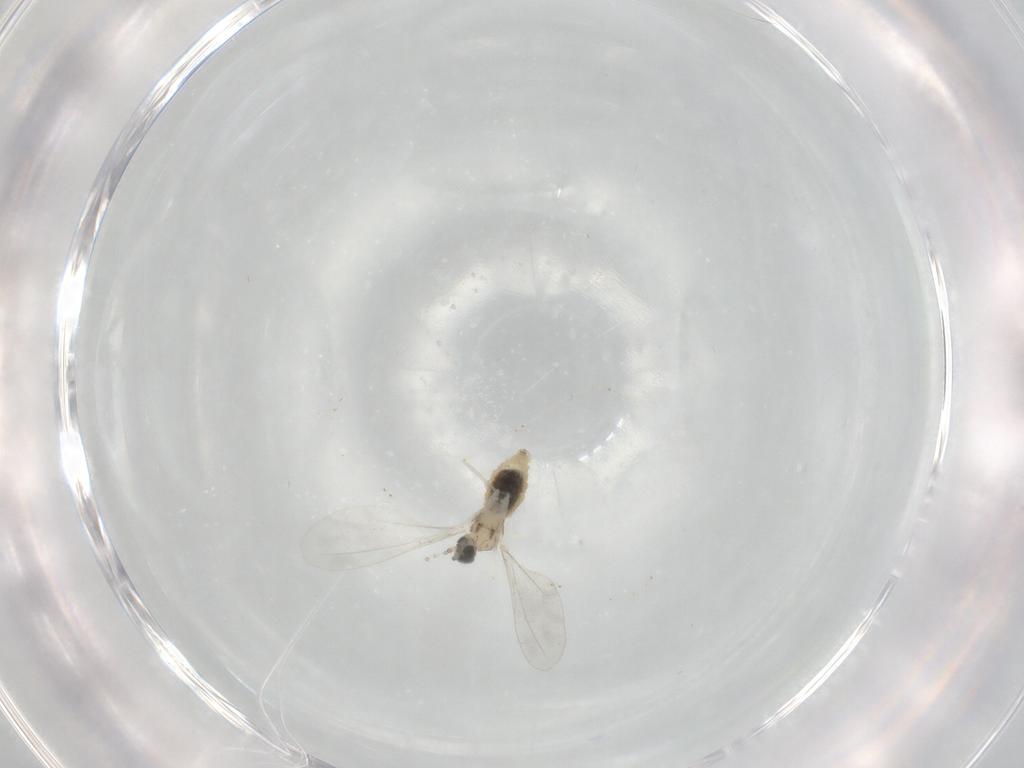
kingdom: Animalia
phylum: Arthropoda
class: Insecta
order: Diptera
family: Cecidomyiidae
